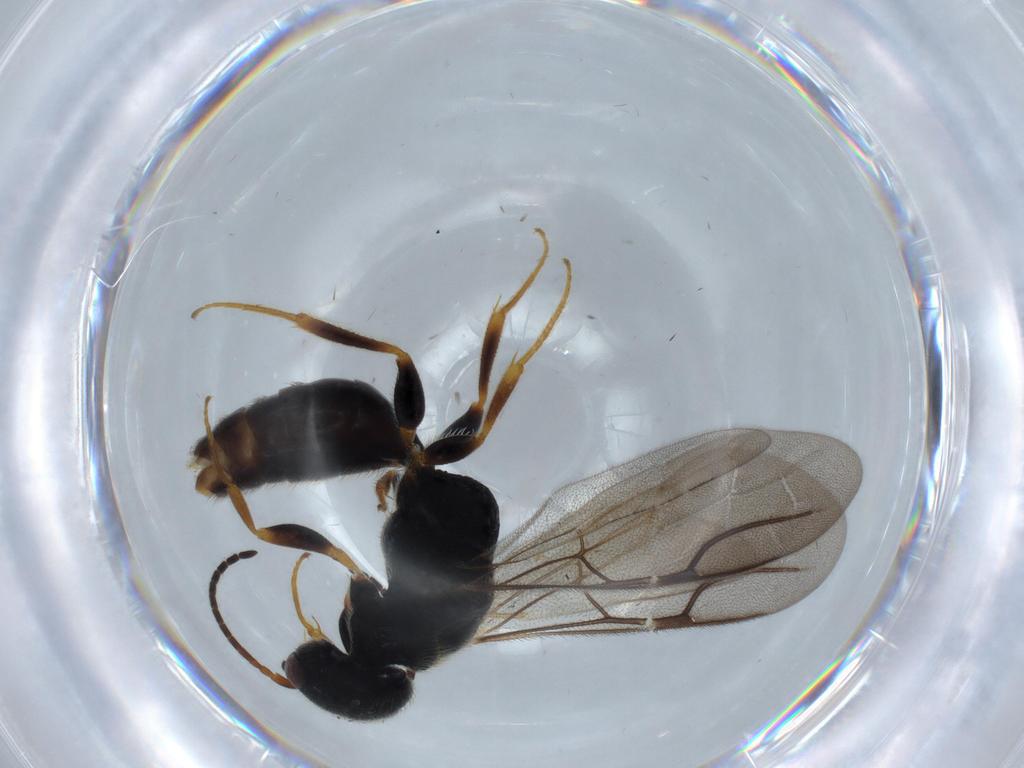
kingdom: Animalia
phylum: Arthropoda
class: Insecta
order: Hymenoptera
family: Bethylidae
